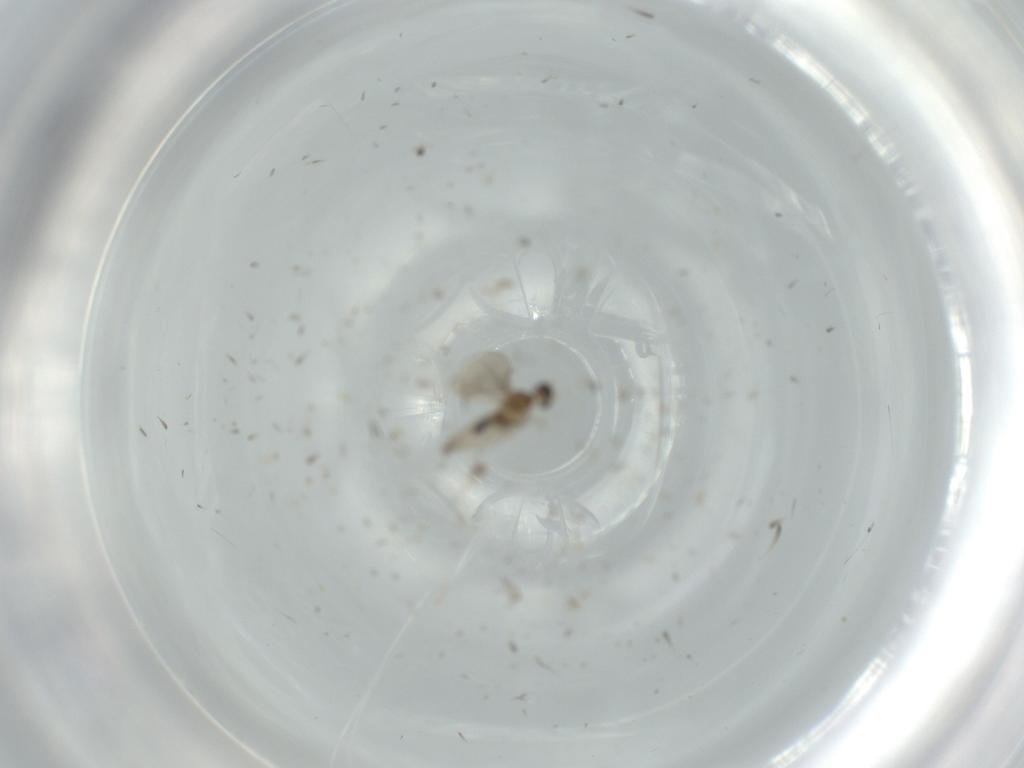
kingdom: Animalia
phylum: Arthropoda
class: Insecta
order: Diptera
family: Cecidomyiidae
